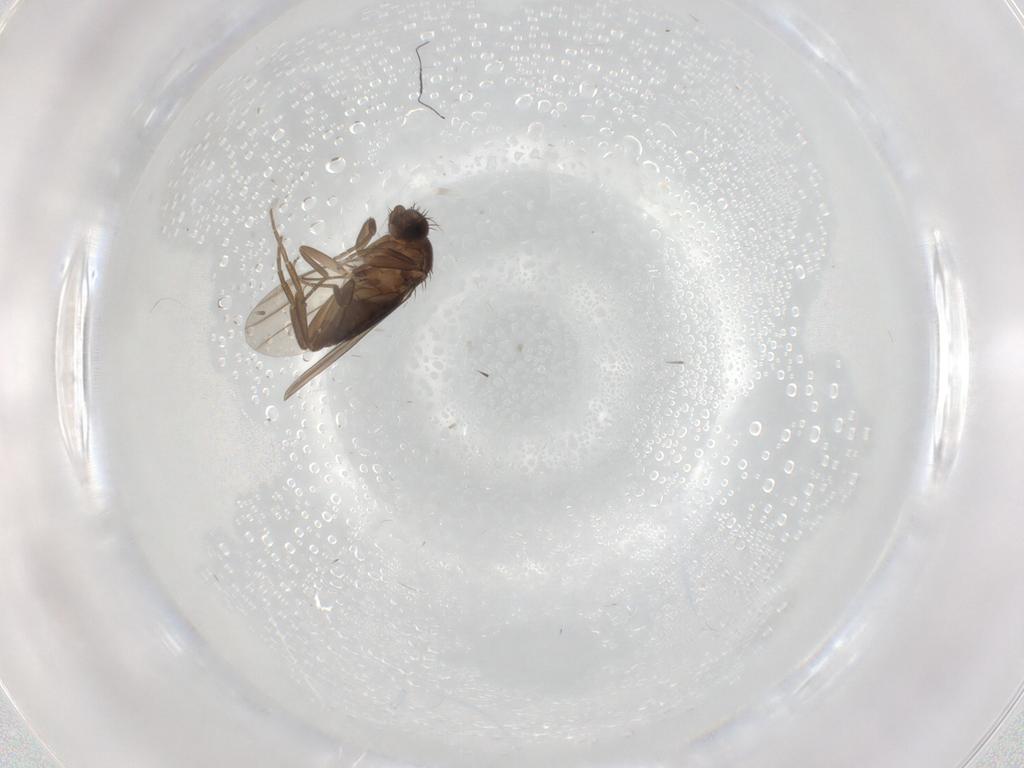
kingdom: Animalia
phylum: Arthropoda
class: Insecta
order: Diptera
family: Phoridae
